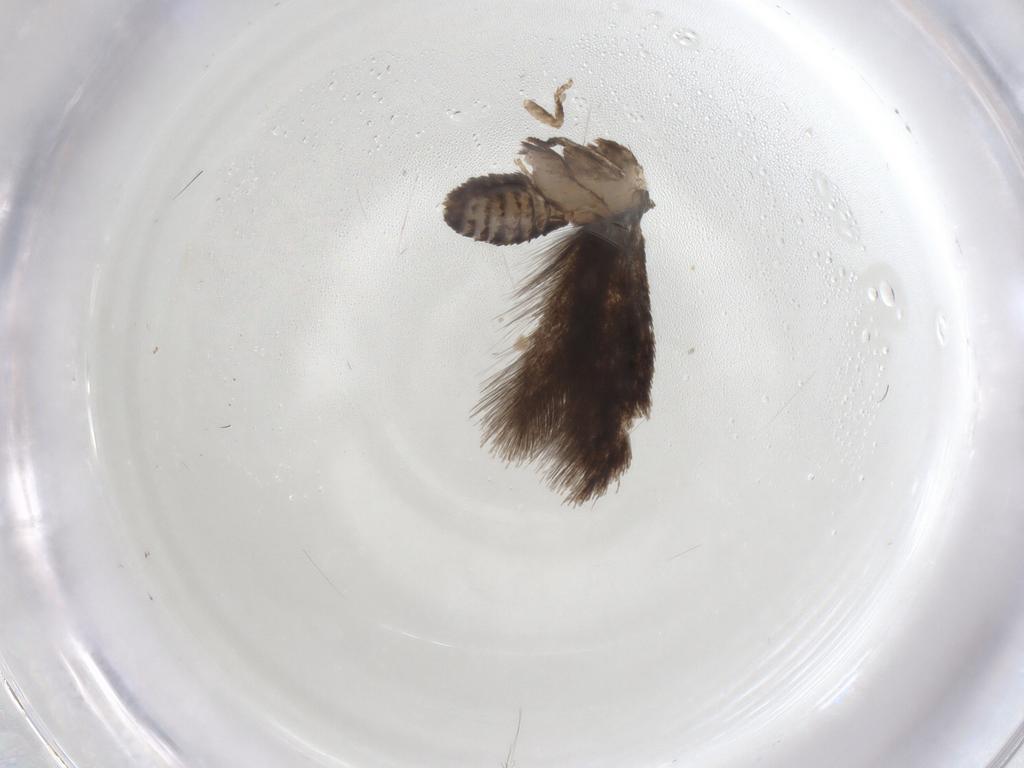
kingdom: Animalia
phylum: Arthropoda
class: Insecta
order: Lepidoptera
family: Nepticulidae
